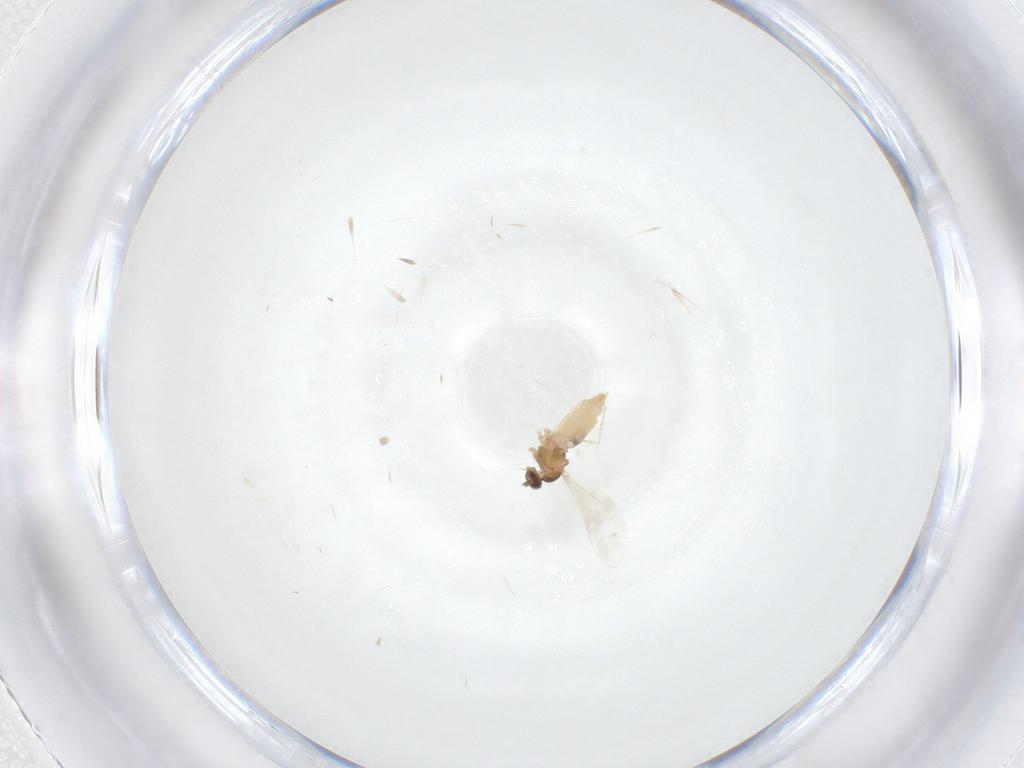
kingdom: Animalia
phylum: Arthropoda
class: Insecta
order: Diptera
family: Cecidomyiidae
